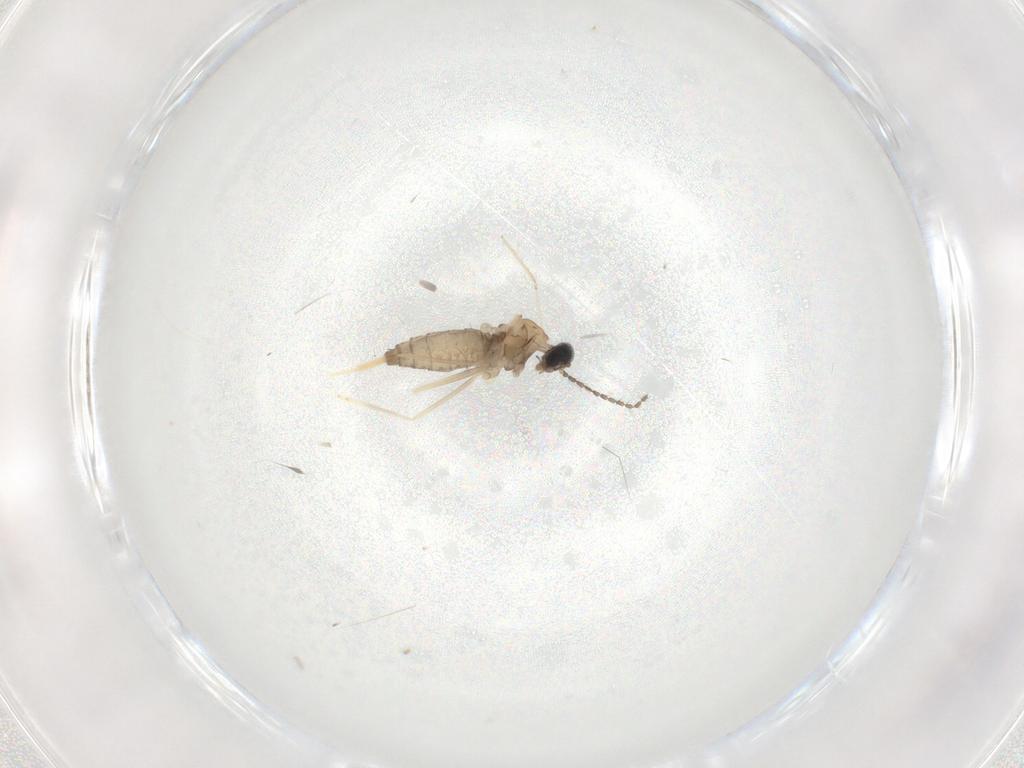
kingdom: Animalia
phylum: Arthropoda
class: Insecta
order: Diptera
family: Cecidomyiidae
